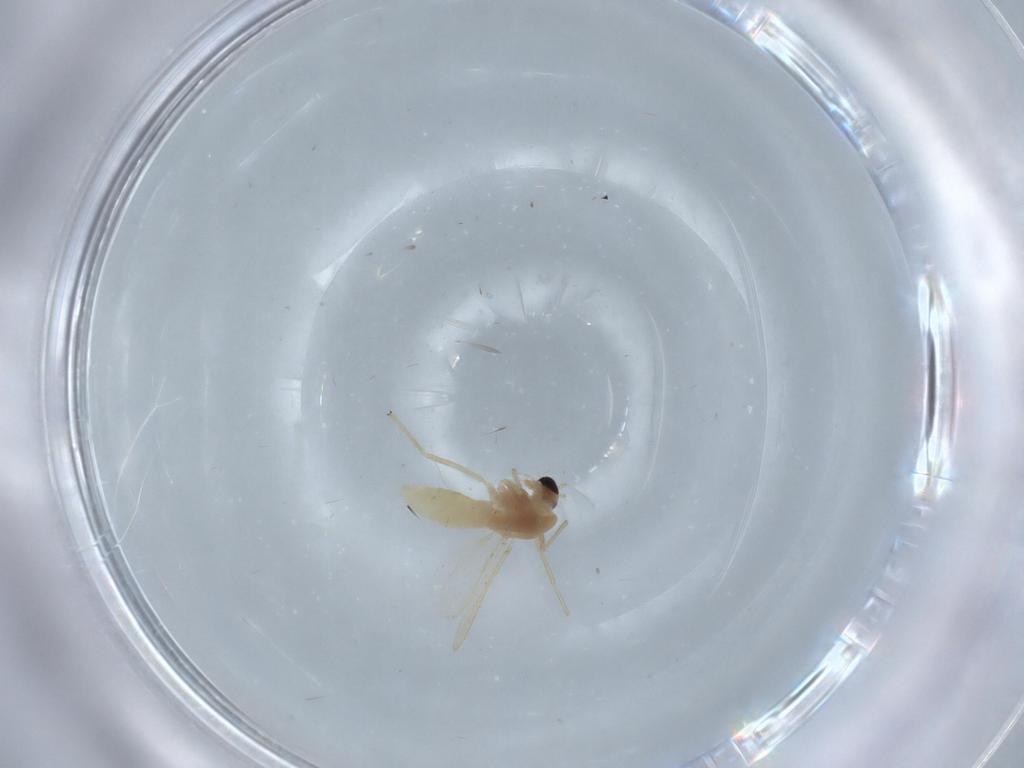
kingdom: Animalia
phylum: Arthropoda
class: Insecta
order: Diptera
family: Chironomidae
